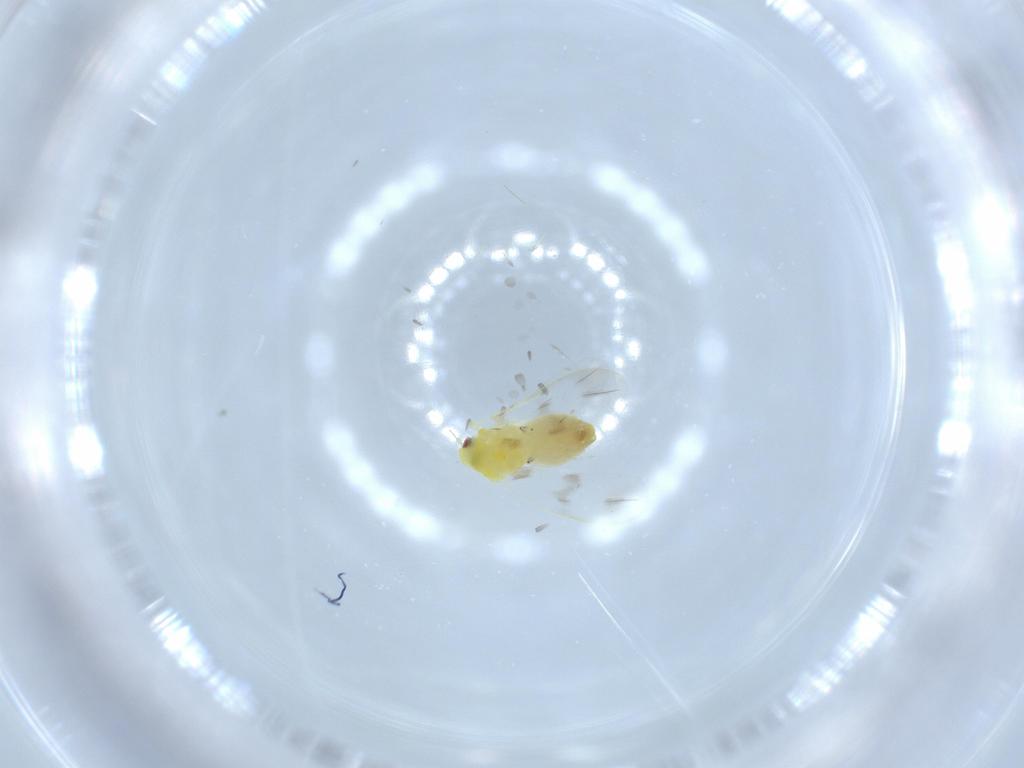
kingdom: Animalia
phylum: Arthropoda
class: Insecta
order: Hemiptera
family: Aleyrodidae
